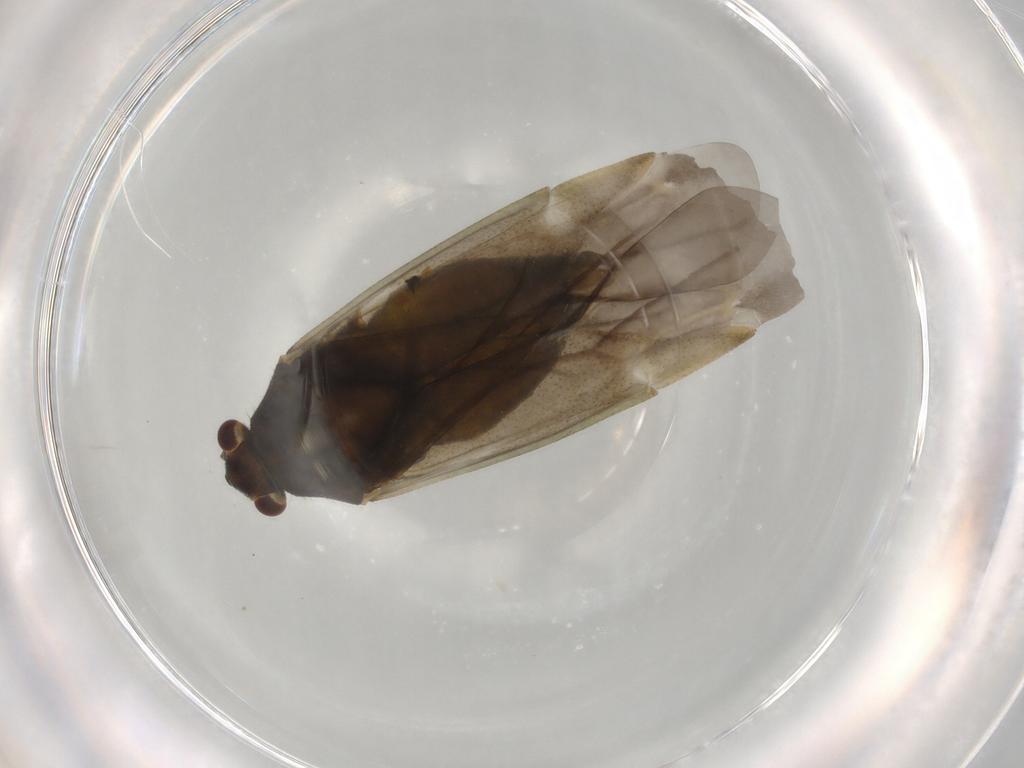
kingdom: Animalia
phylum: Arthropoda
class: Insecta
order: Hemiptera
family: Miridae
